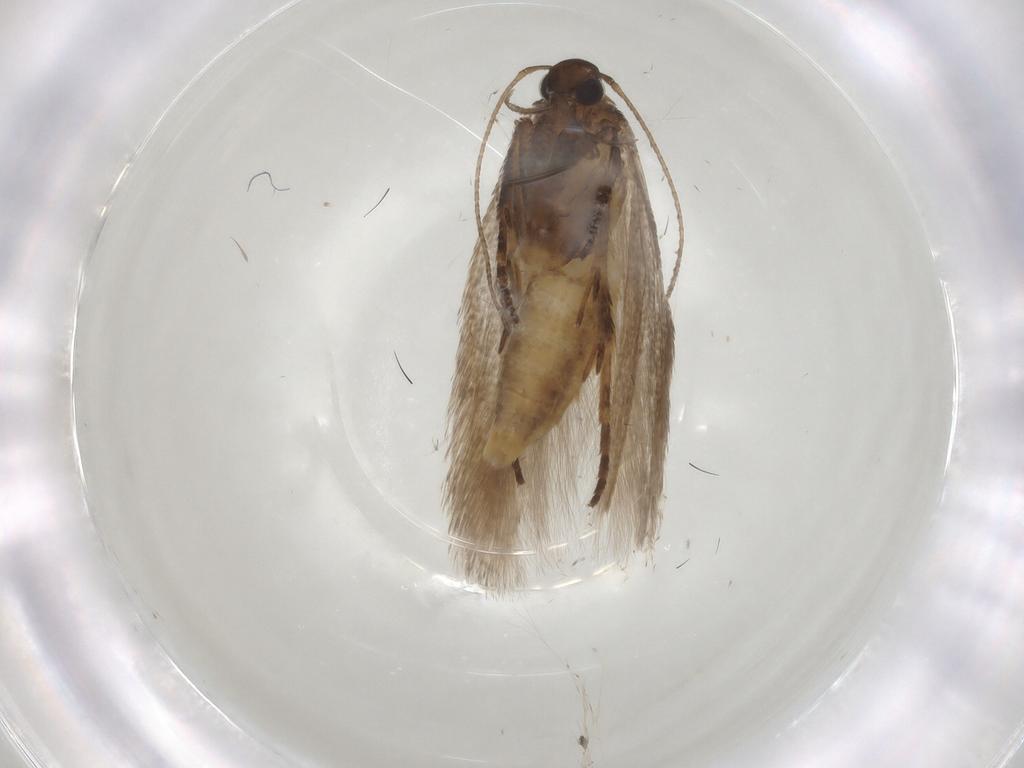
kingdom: Animalia
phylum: Arthropoda
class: Insecta
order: Lepidoptera
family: Gelechiidae
